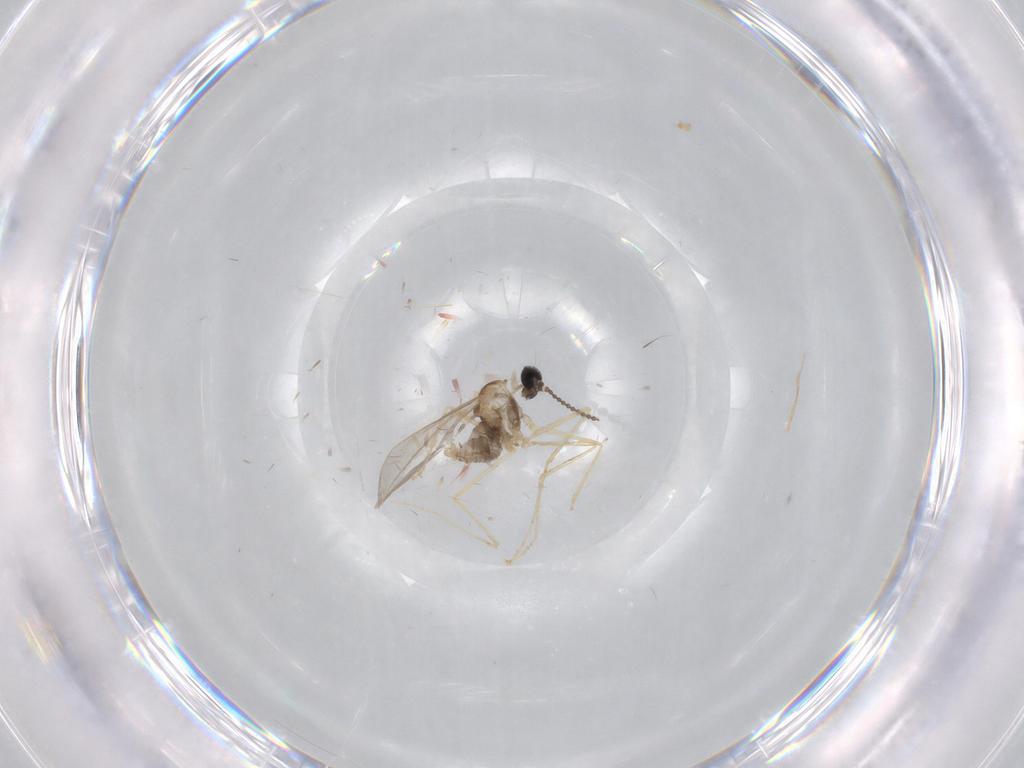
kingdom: Animalia
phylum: Arthropoda
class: Insecta
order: Diptera
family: Cecidomyiidae
